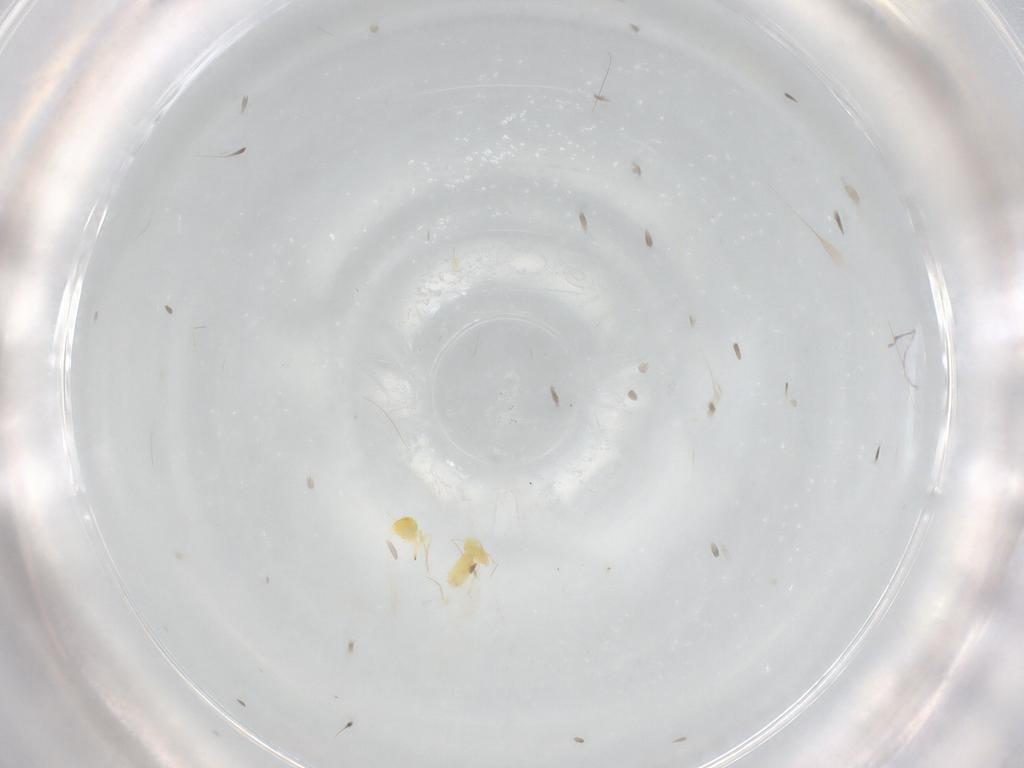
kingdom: Animalia
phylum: Arthropoda
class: Insecta
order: Hemiptera
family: Aleyrodidae
